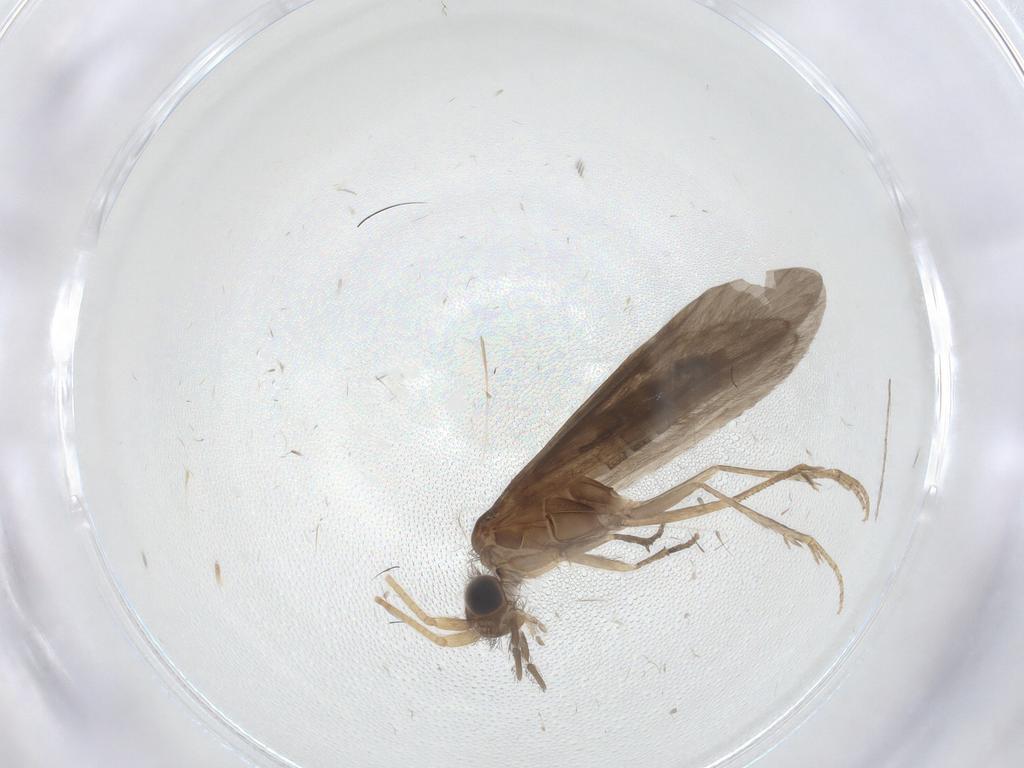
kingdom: Animalia
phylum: Arthropoda
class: Insecta
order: Trichoptera
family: Helicopsychidae
